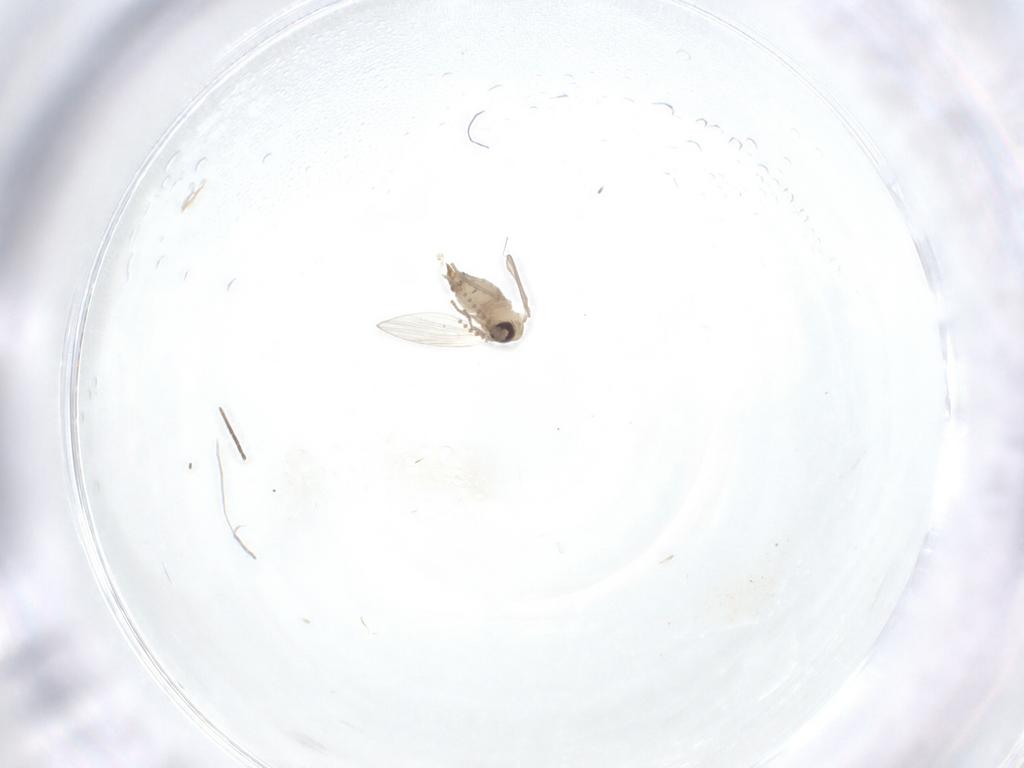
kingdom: Animalia
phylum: Arthropoda
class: Insecta
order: Diptera
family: Psychodidae
